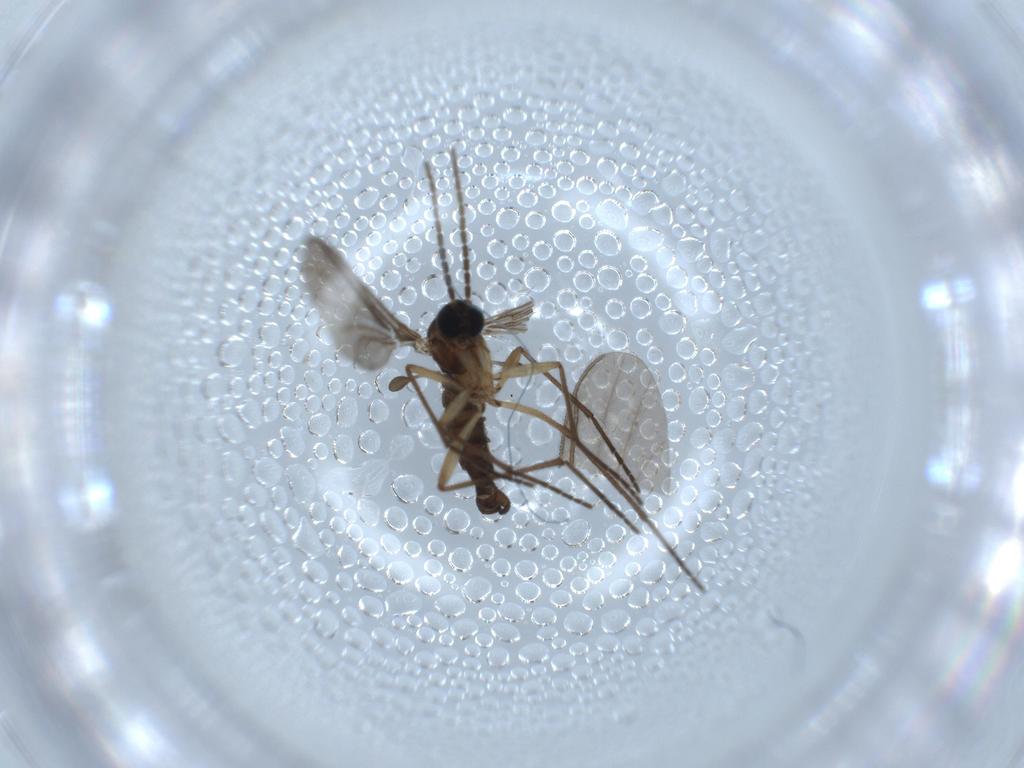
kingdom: Animalia
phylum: Arthropoda
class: Insecta
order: Diptera
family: Sciaridae
